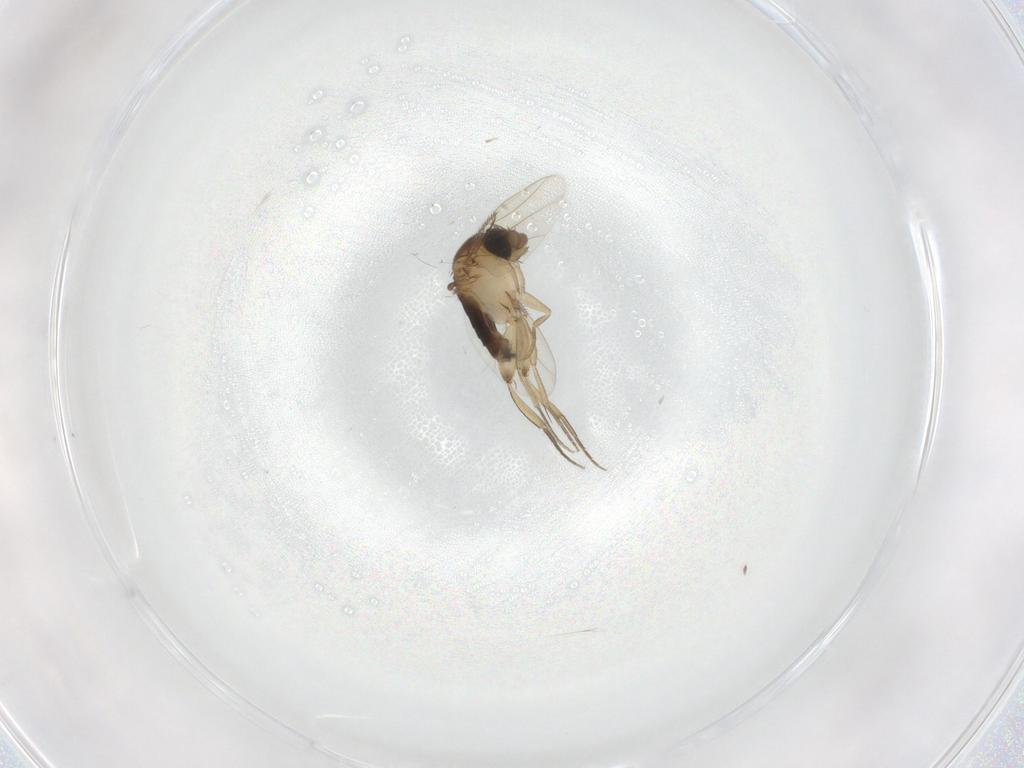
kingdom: Animalia
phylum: Arthropoda
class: Insecta
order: Diptera
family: Phoridae
